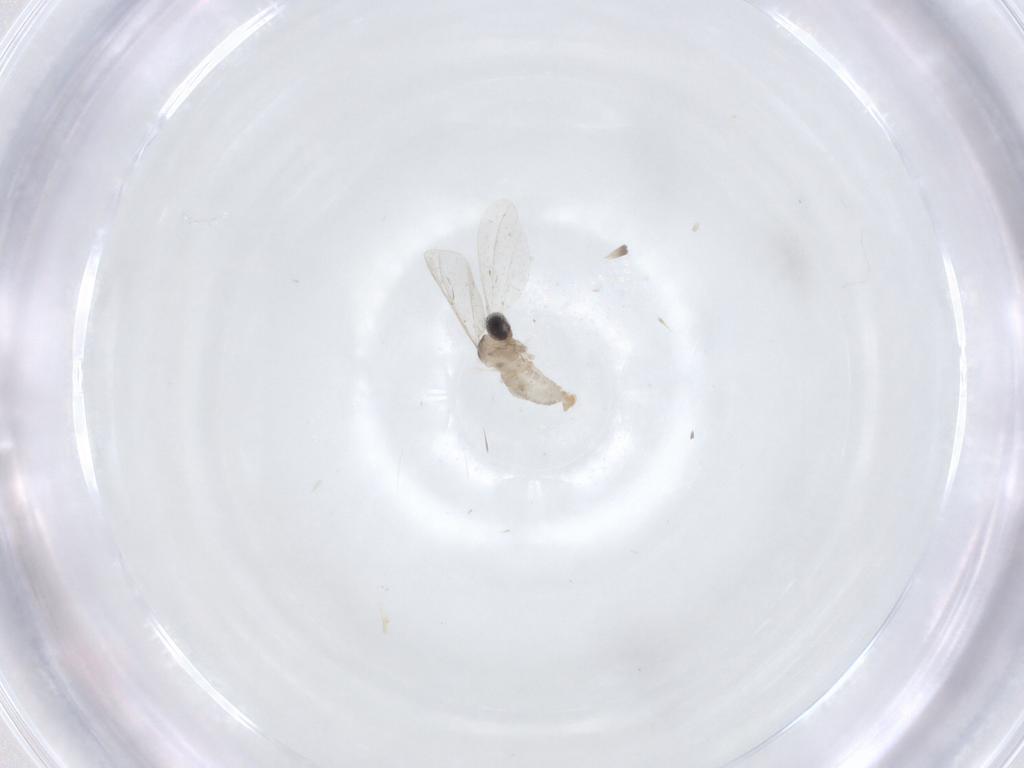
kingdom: Animalia
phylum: Arthropoda
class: Insecta
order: Diptera
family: Cecidomyiidae
